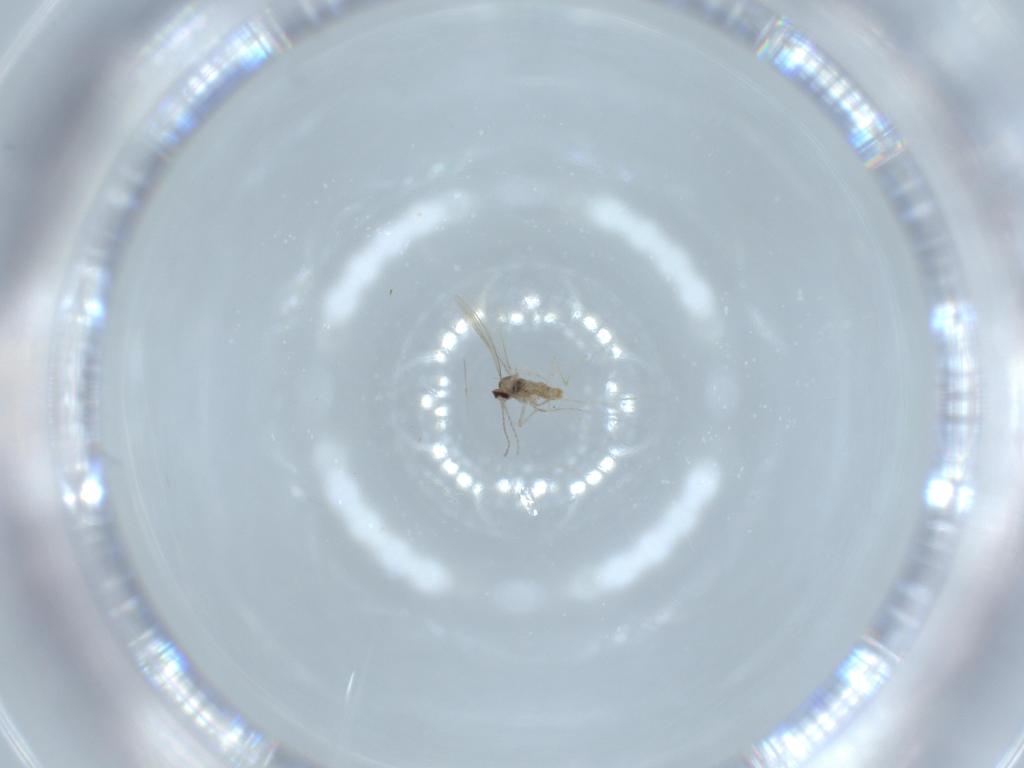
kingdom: Animalia
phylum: Arthropoda
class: Insecta
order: Diptera
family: Cecidomyiidae
